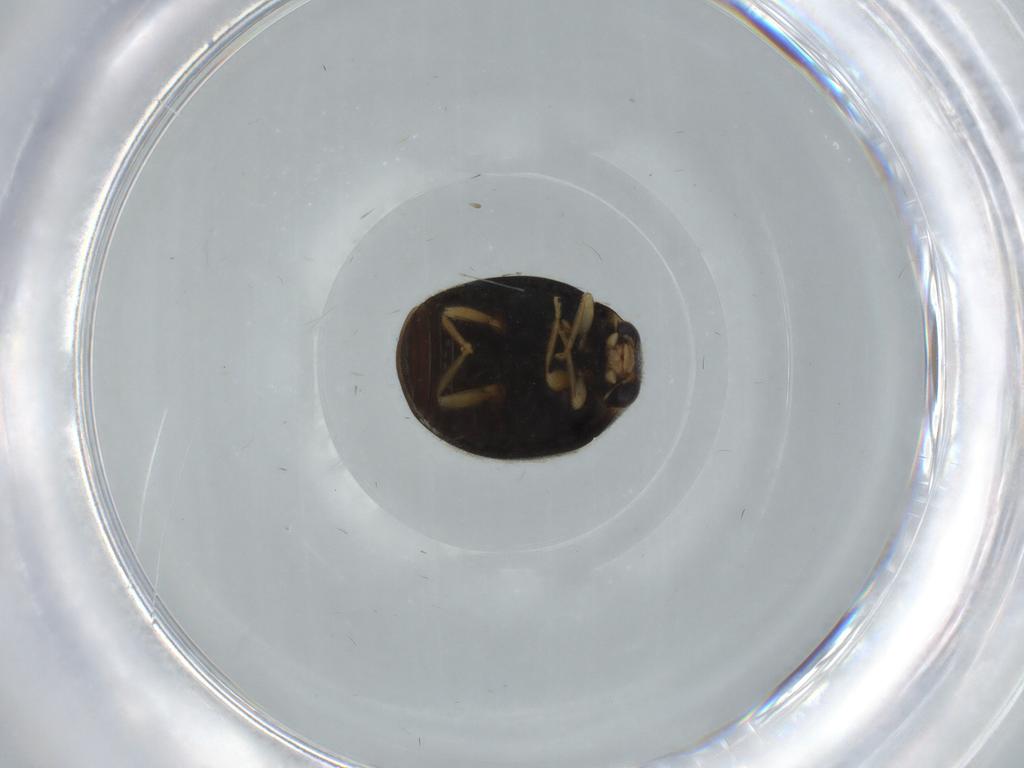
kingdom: Animalia
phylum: Arthropoda
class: Insecta
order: Coleoptera
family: Coccinellidae
